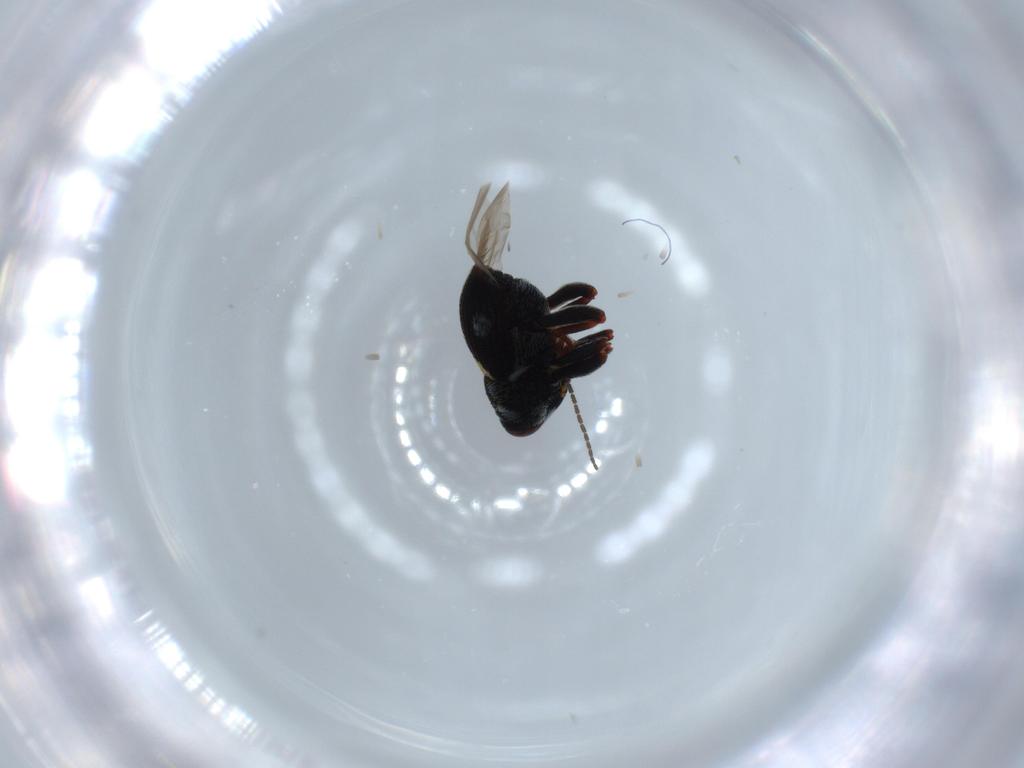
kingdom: Animalia
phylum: Arthropoda
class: Insecta
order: Coleoptera
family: Curculionidae
